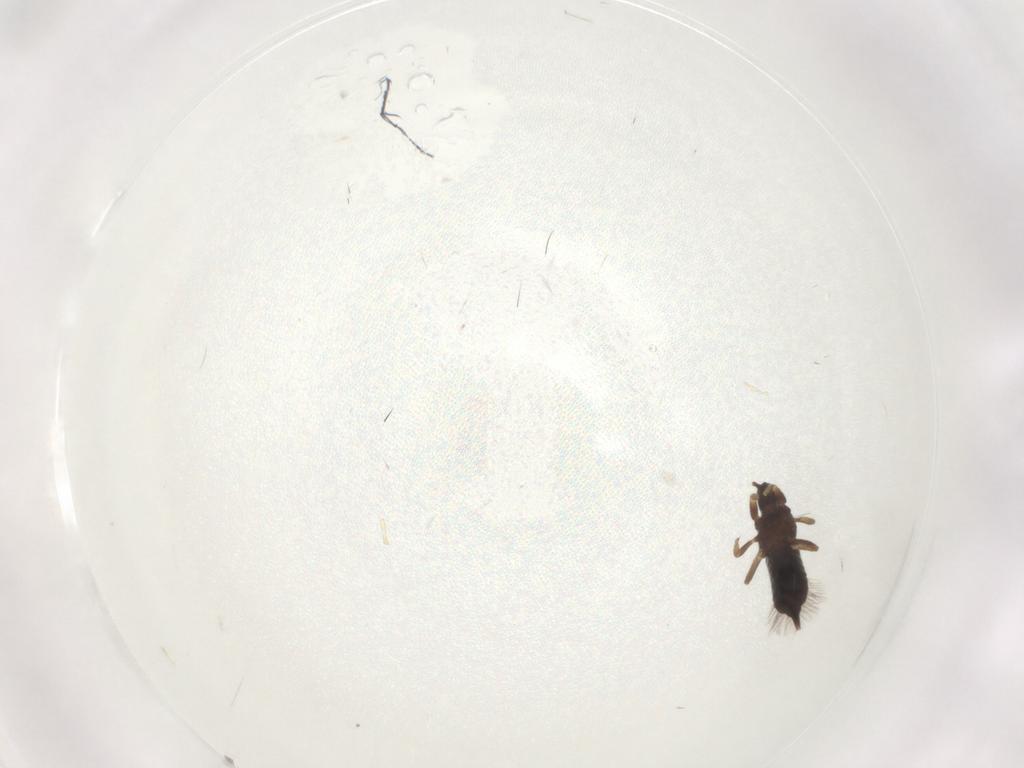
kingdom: Animalia
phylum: Arthropoda
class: Insecta
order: Thysanoptera
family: Phlaeothripidae
